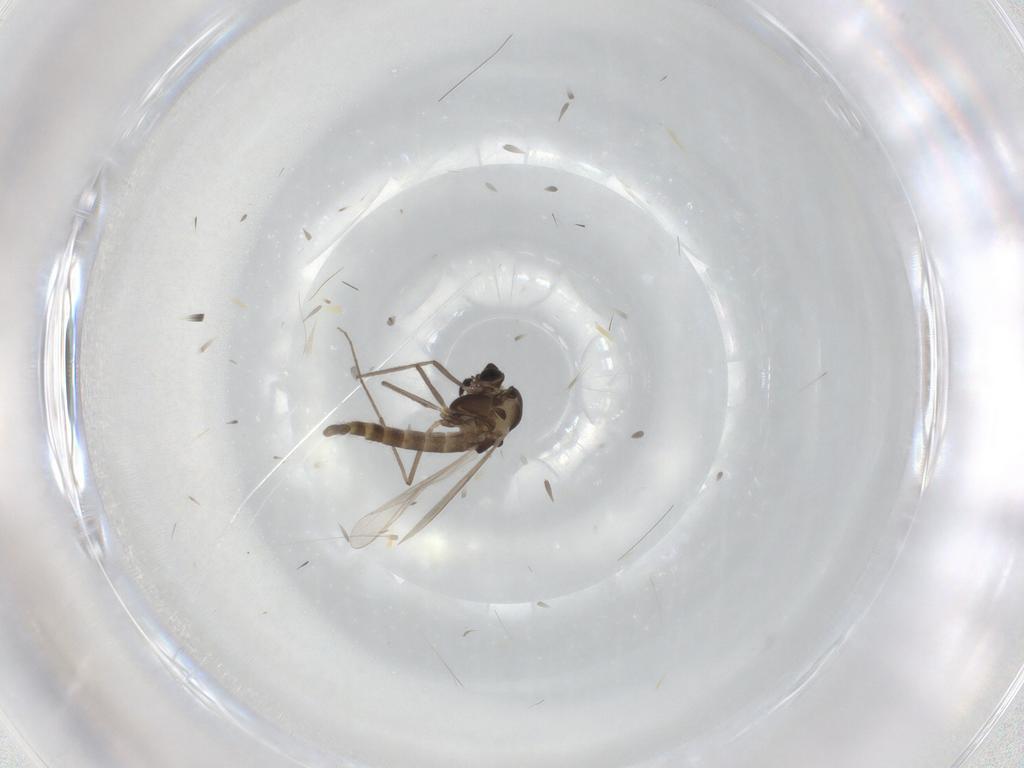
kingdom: Animalia
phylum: Arthropoda
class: Insecta
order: Diptera
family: Chironomidae
